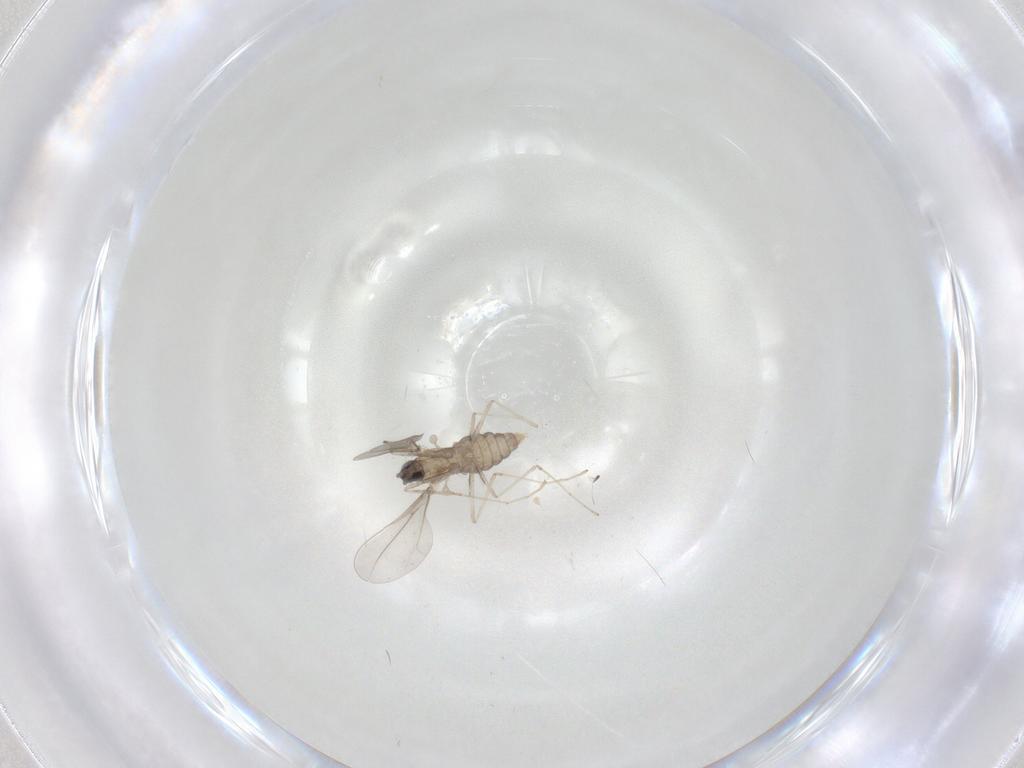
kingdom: Animalia
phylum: Arthropoda
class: Insecta
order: Diptera
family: Cecidomyiidae
